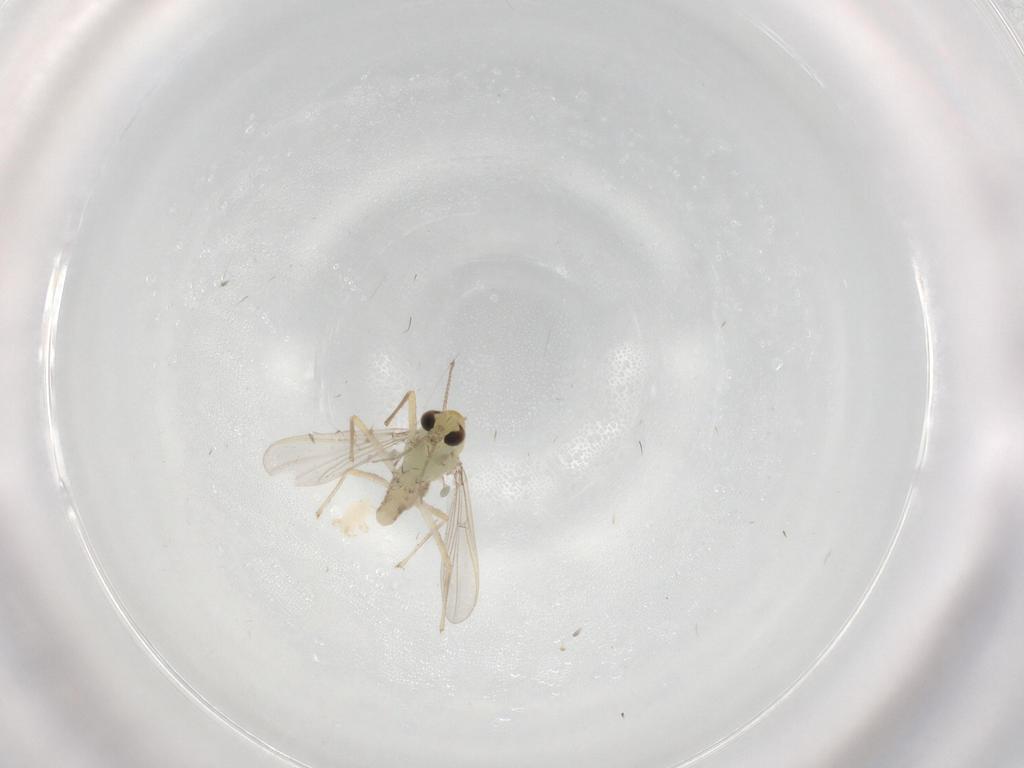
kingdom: Animalia
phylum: Arthropoda
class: Insecta
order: Diptera
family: Chironomidae
